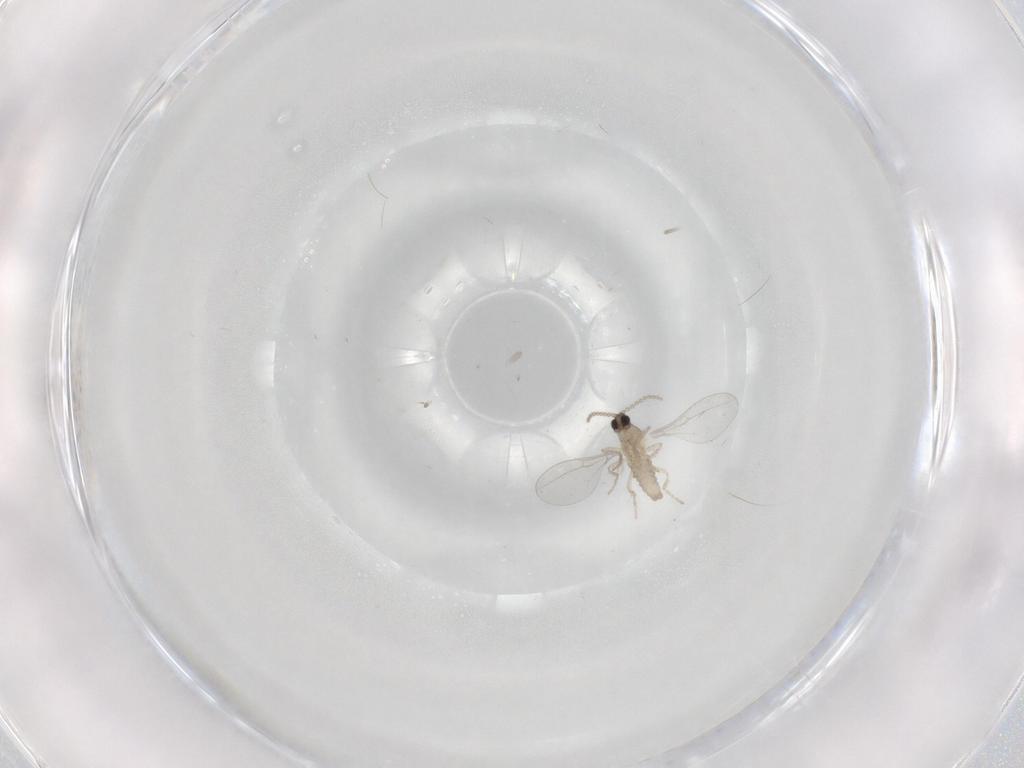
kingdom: Animalia
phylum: Arthropoda
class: Insecta
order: Diptera
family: Cecidomyiidae
